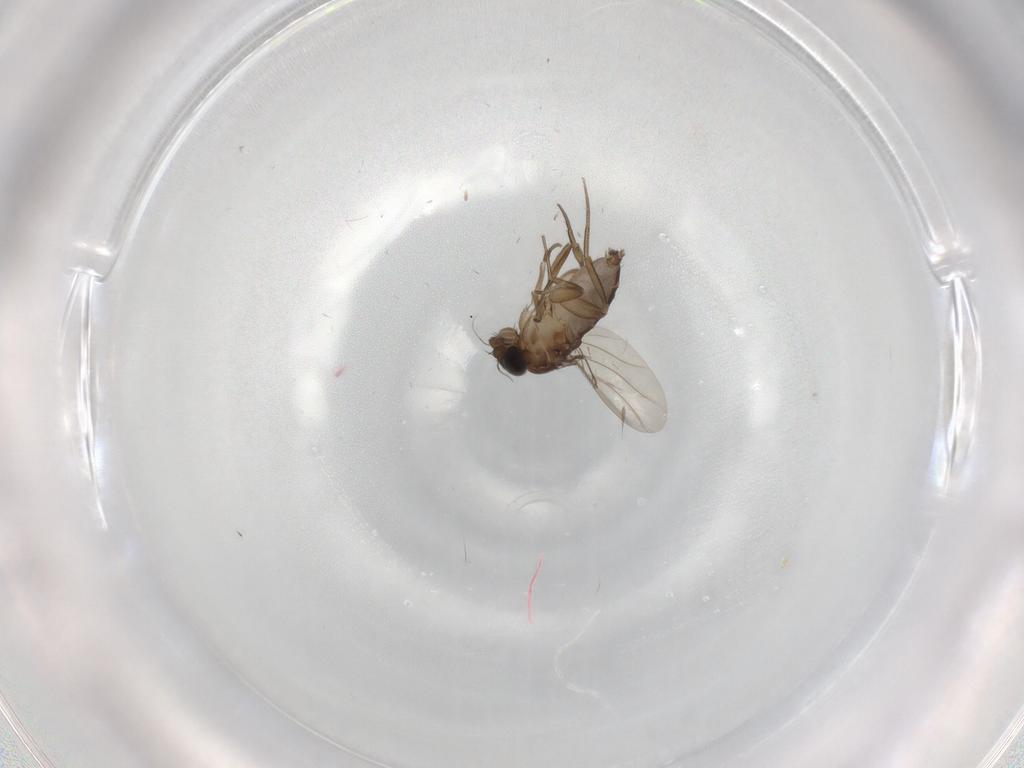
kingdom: Animalia
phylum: Arthropoda
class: Insecta
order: Diptera
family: Phoridae
